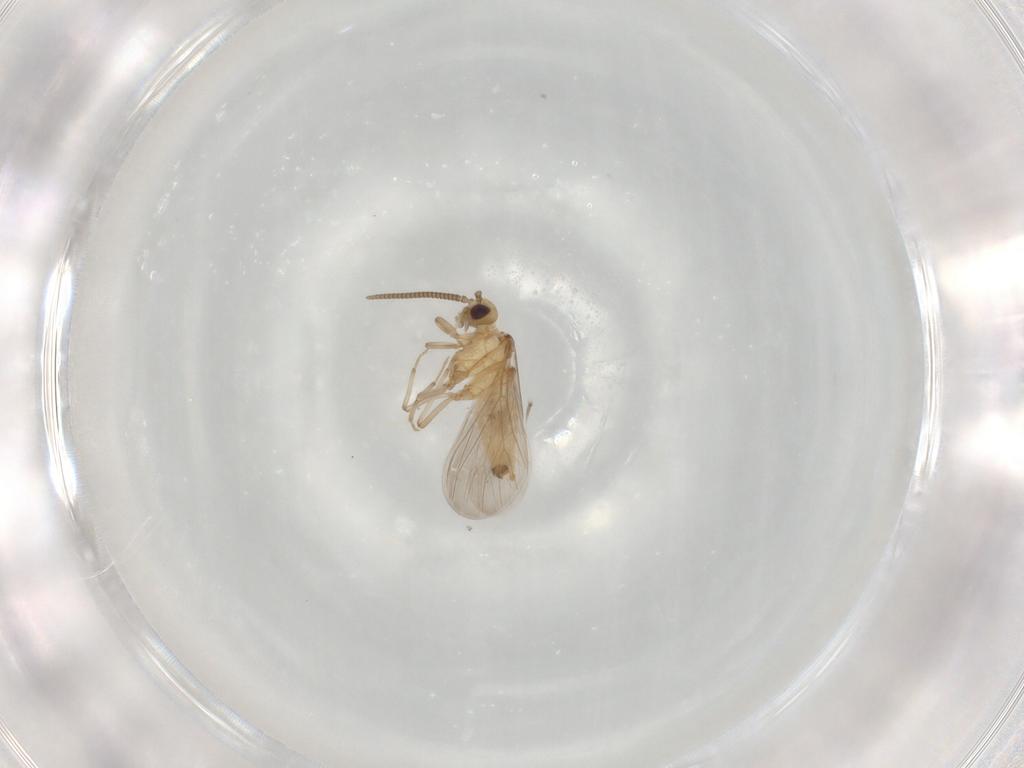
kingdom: Animalia
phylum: Arthropoda
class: Insecta
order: Neuroptera
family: Coniopterygidae
